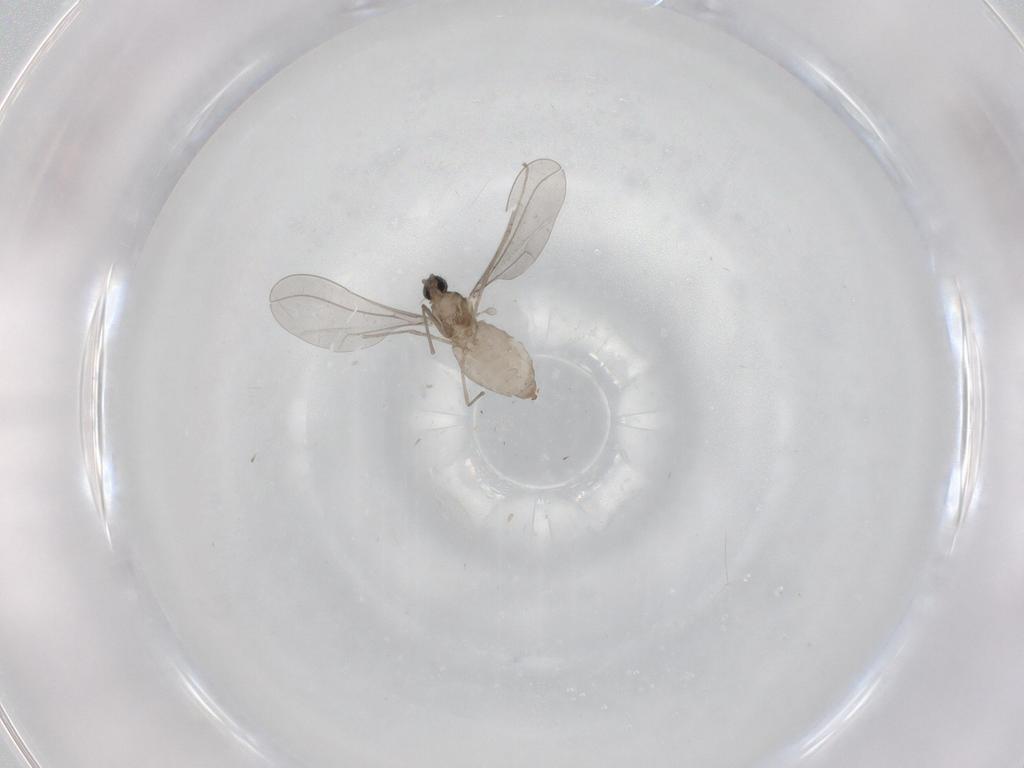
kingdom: Animalia
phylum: Arthropoda
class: Insecta
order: Diptera
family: Cecidomyiidae
